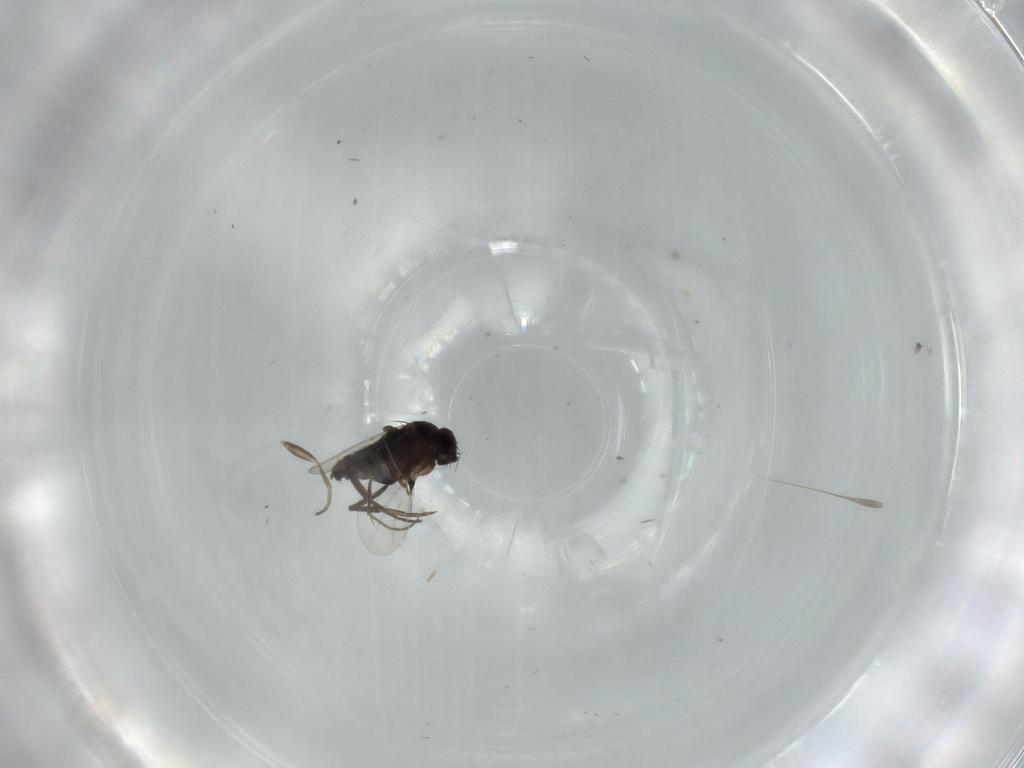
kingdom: Animalia
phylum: Arthropoda
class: Insecta
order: Diptera
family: Phoridae
